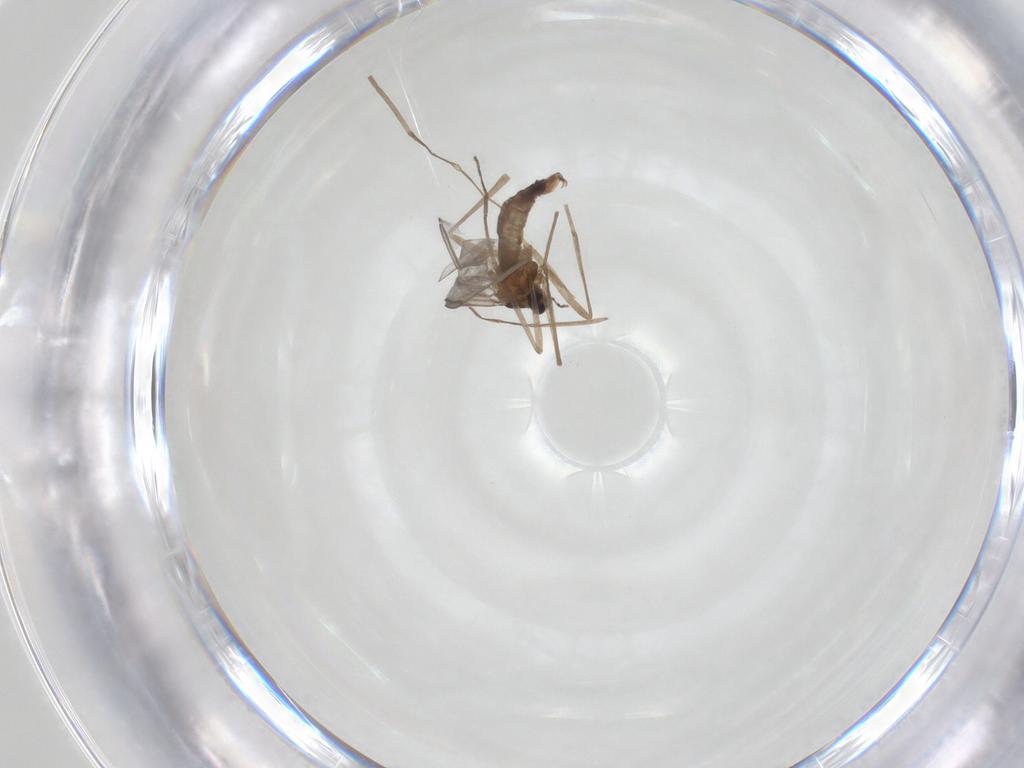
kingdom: Animalia
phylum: Arthropoda
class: Insecta
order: Diptera
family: Cecidomyiidae
